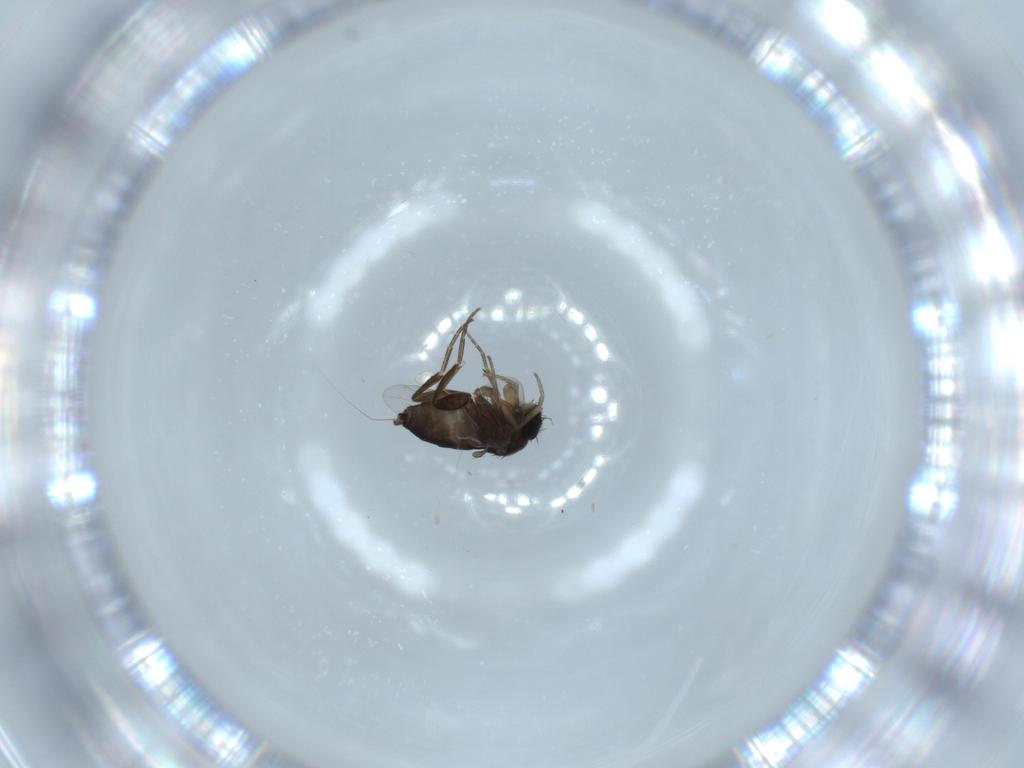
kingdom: Animalia
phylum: Arthropoda
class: Insecta
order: Diptera
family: Phoridae
